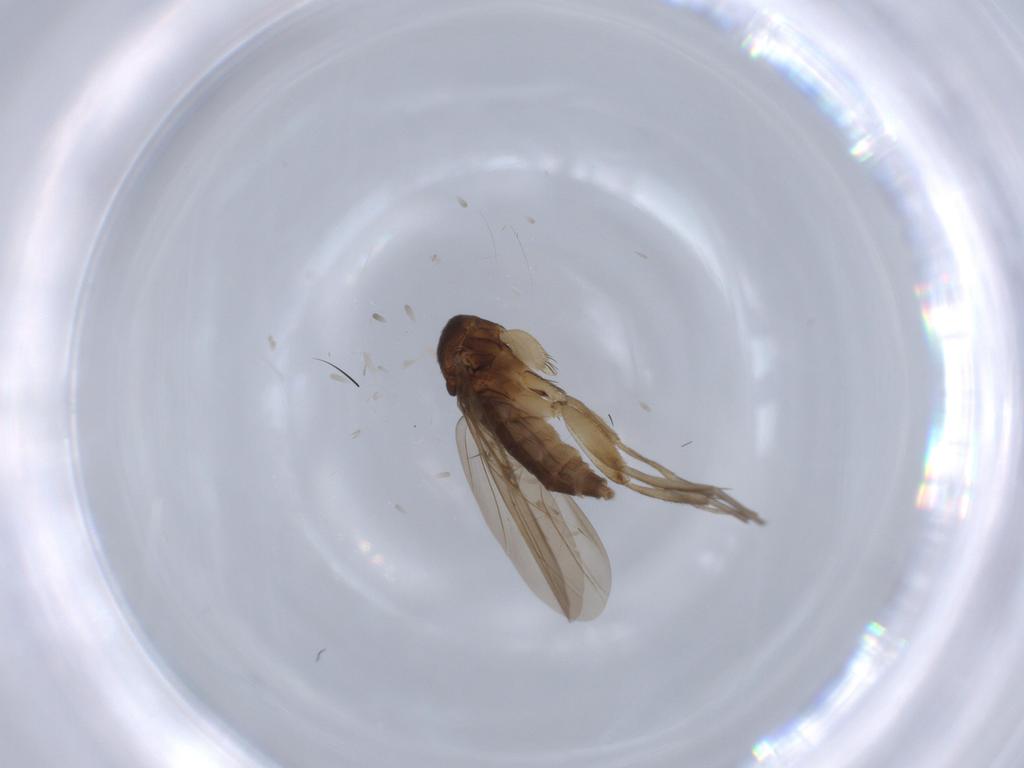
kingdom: Animalia
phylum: Arthropoda
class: Insecta
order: Diptera
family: Phoridae
